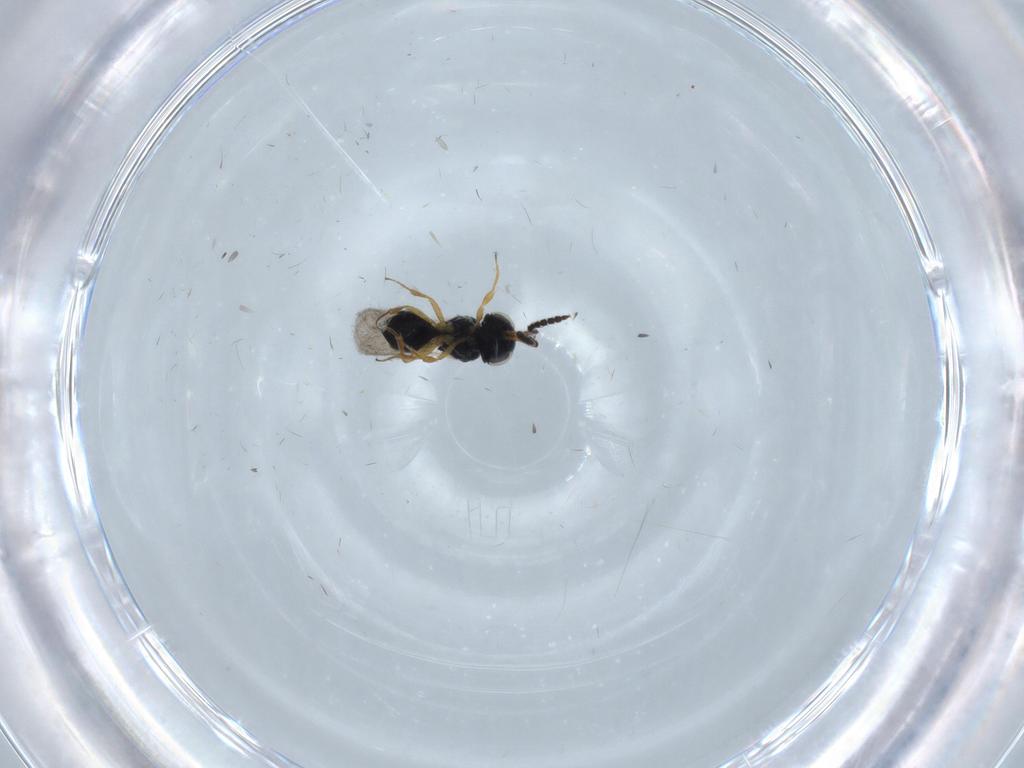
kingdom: Animalia
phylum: Arthropoda
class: Insecta
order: Hymenoptera
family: Scelionidae
